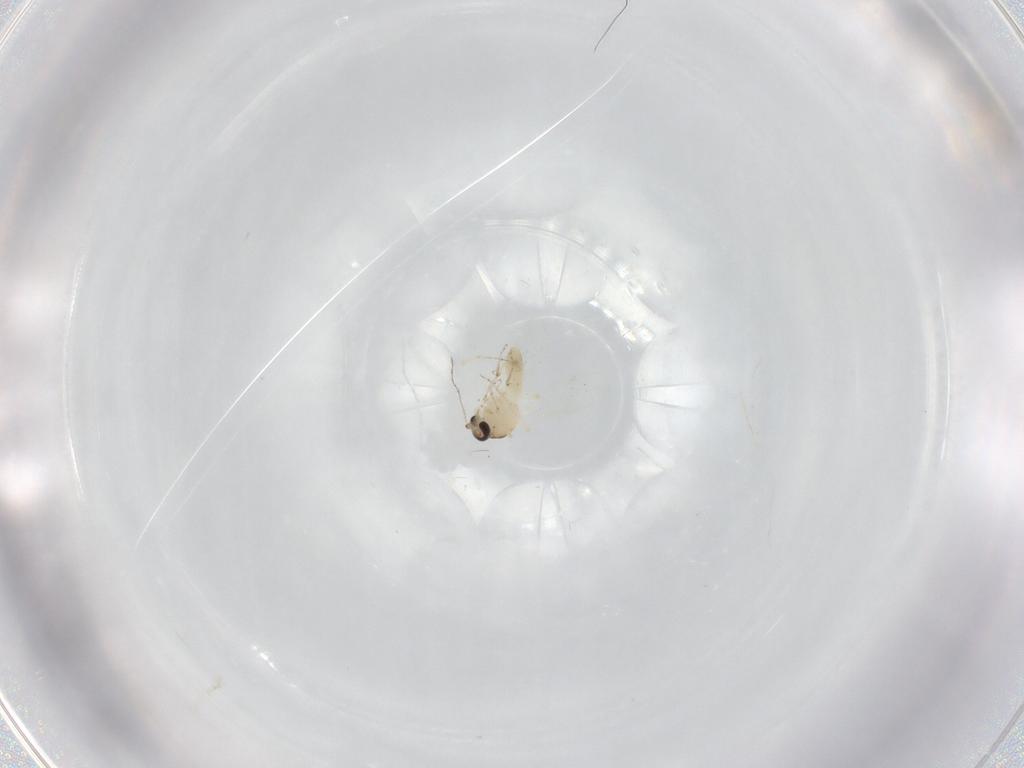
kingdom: Animalia
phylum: Arthropoda
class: Insecta
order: Diptera
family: Ceratopogonidae
